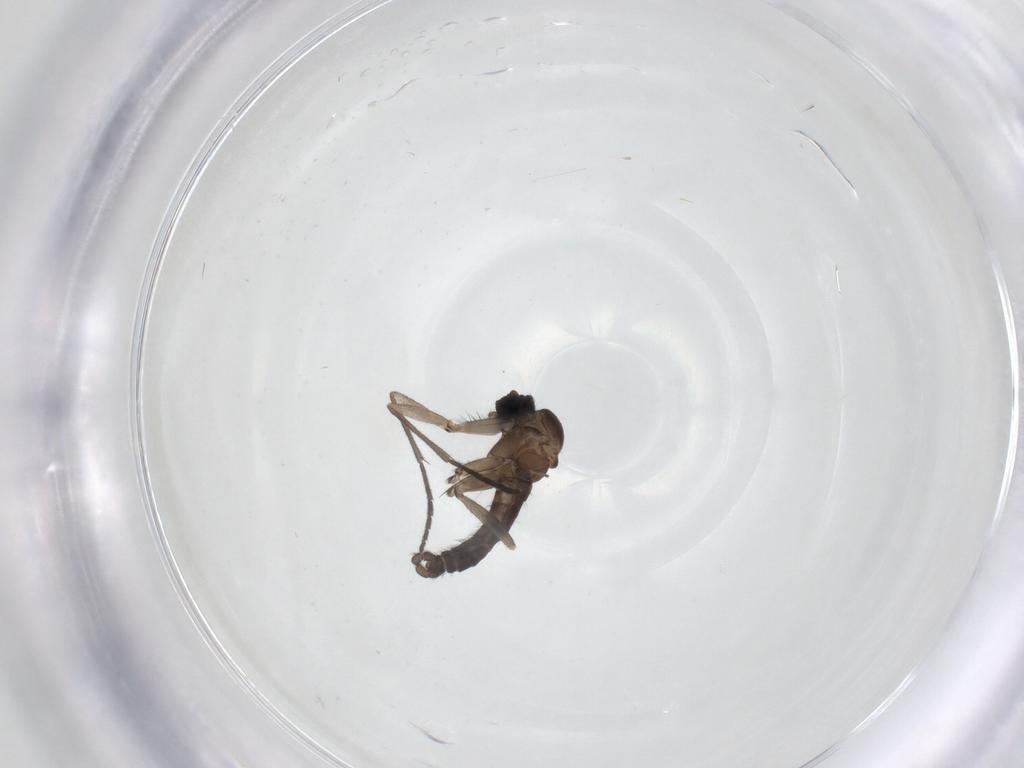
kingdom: Animalia
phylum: Arthropoda
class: Insecta
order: Diptera
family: Sciaridae
